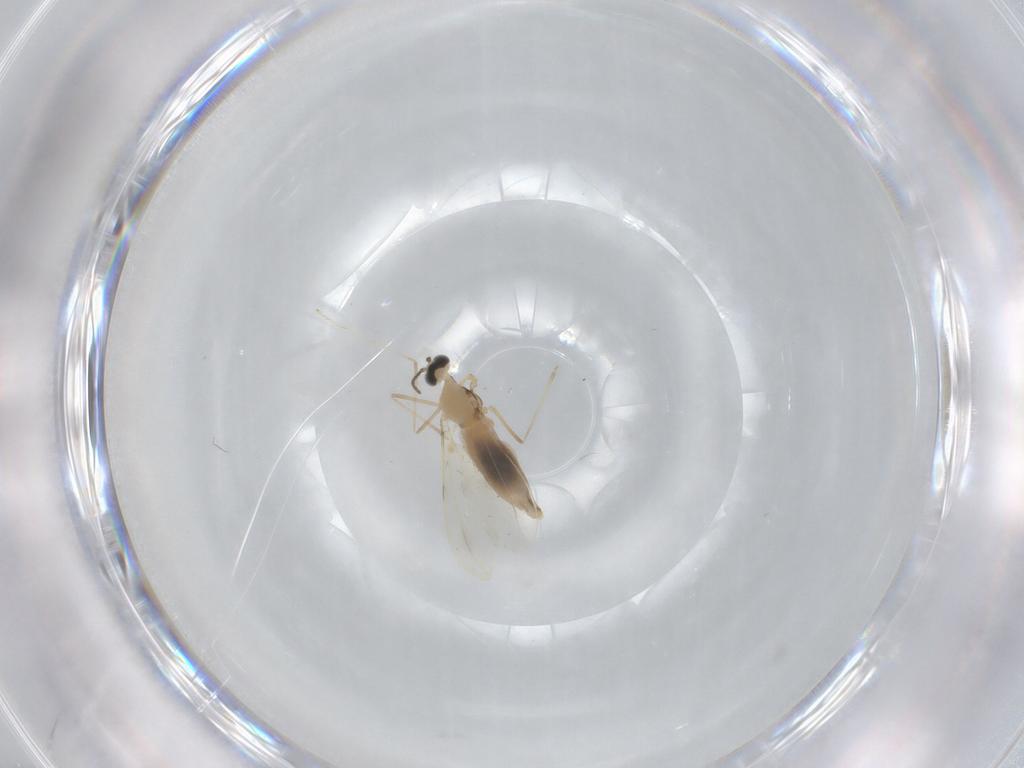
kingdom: Animalia
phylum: Arthropoda
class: Insecta
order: Diptera
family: Cecidomyiidae
